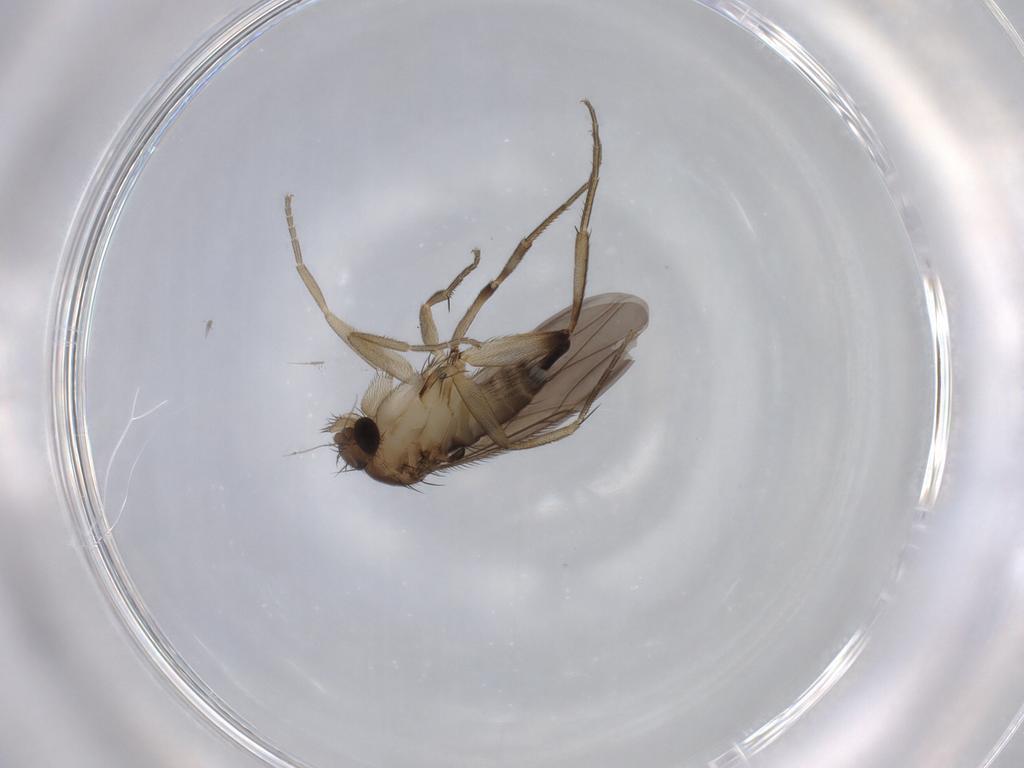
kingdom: Animalia
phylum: Arthropoda
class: Insecta
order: Diptera
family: Phoridae
